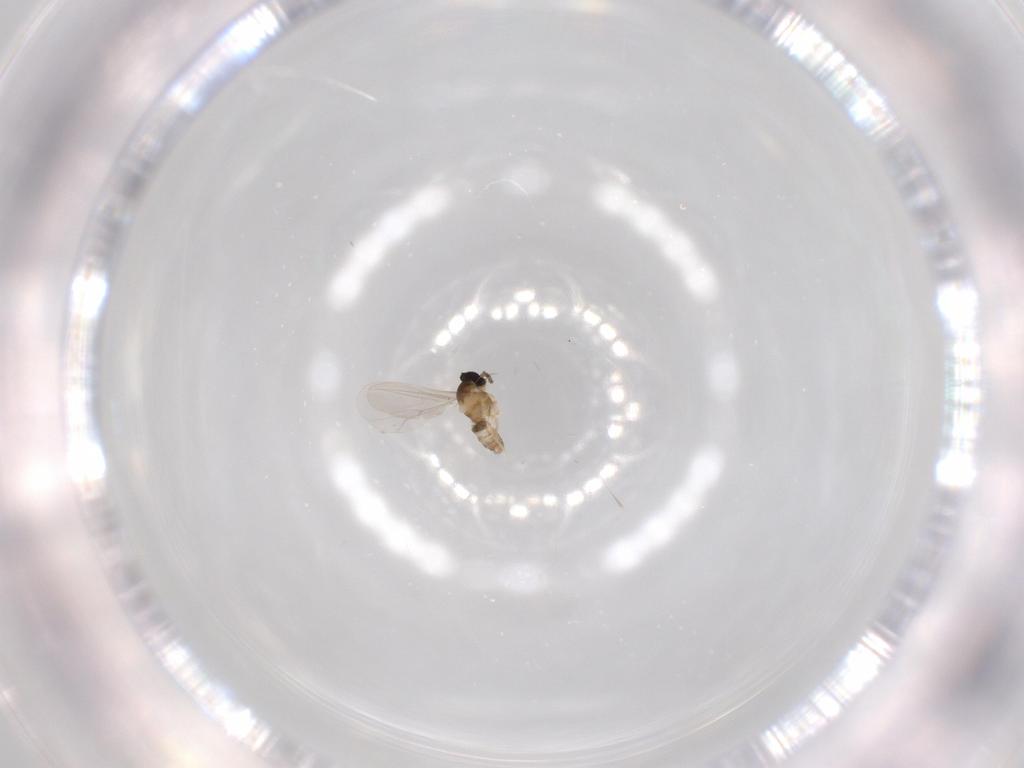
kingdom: Animalia
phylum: Arthropoda
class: Insecta
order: Diptera
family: Cecidomyiidae
